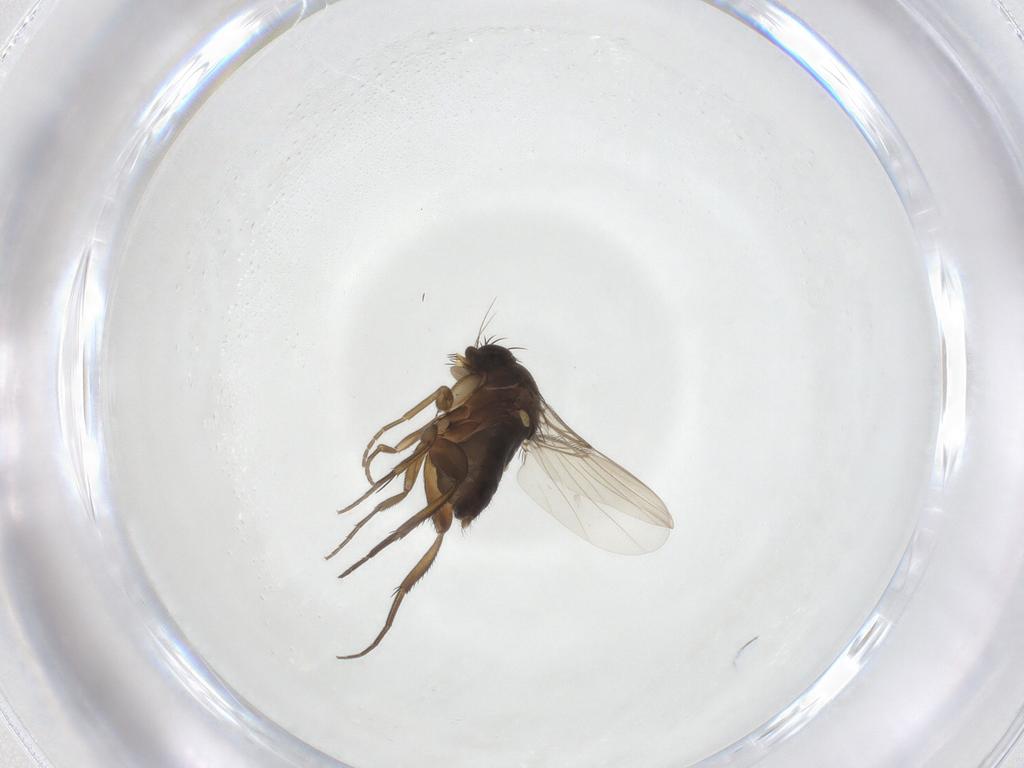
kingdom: Animalia
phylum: Arthropoda
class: Insecta
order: Diptera
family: Phoridae
